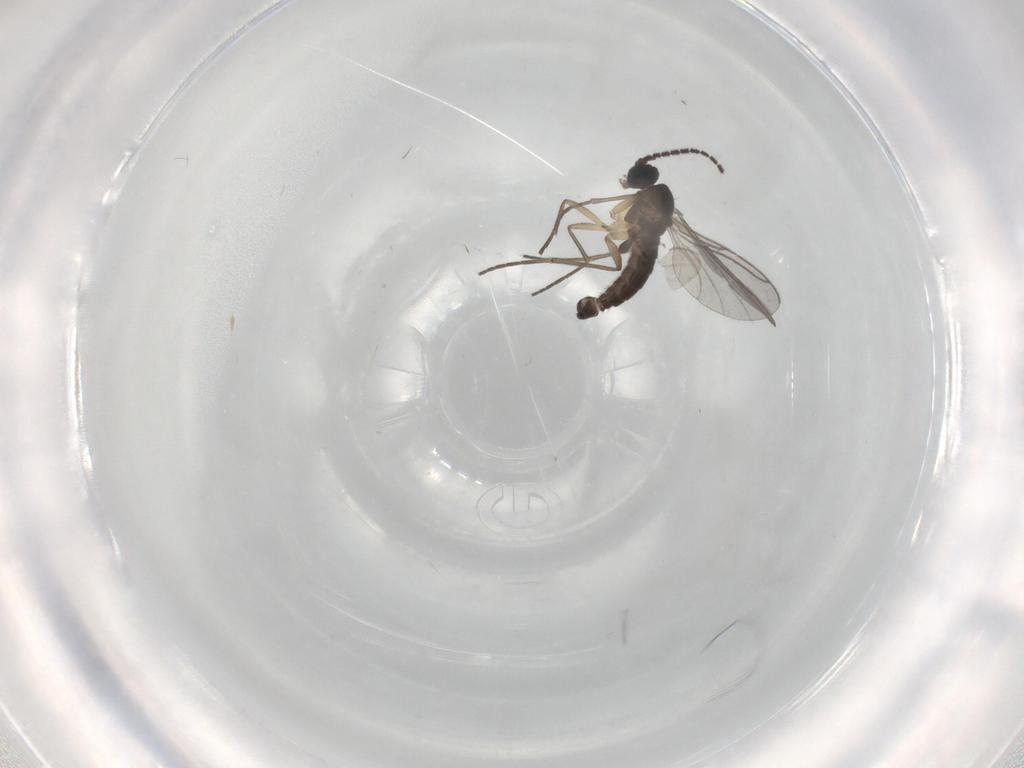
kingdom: Animalia
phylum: Arthropoda
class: Insecta
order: Diptera
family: Sciaridae
